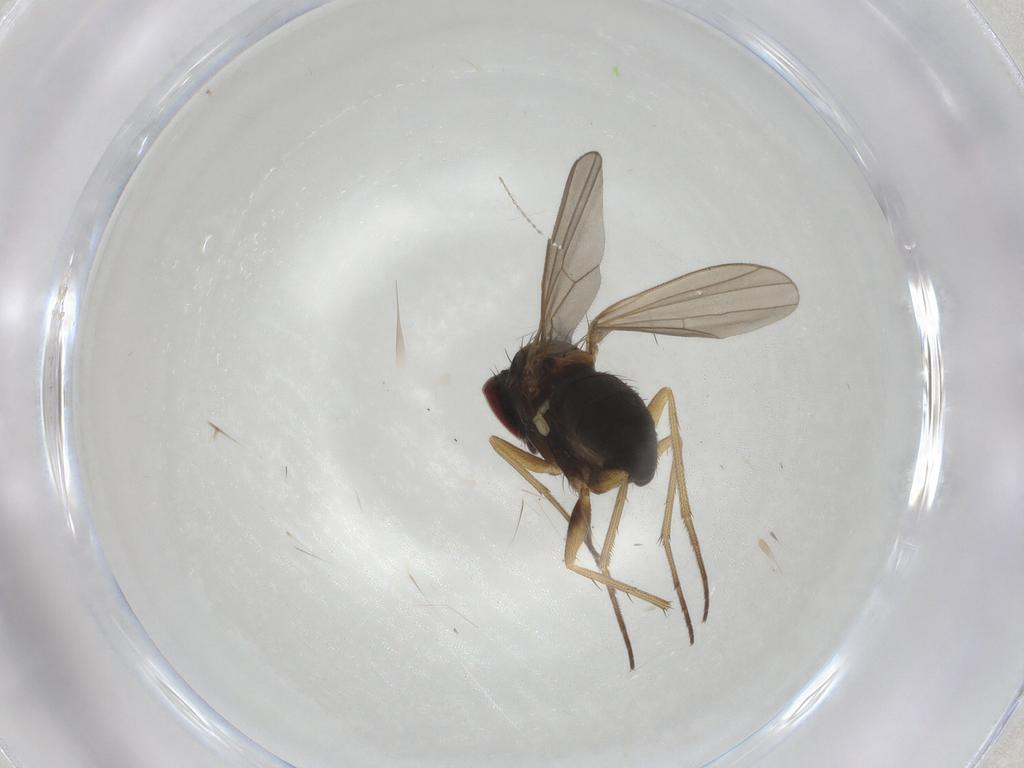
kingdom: Animalia
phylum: Arthropoda
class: Insecta
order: Diptera
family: Dolichopodidae
